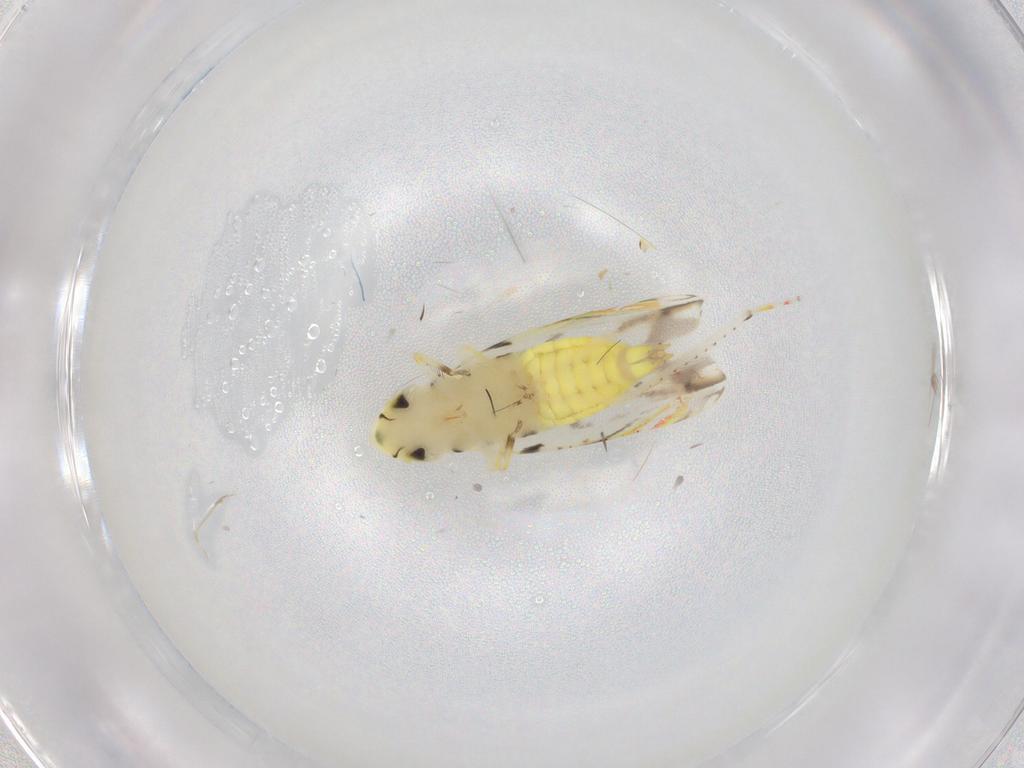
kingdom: Animalia
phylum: Arthropoda
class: Insecta
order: Hemiptera
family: Cicadellidae
